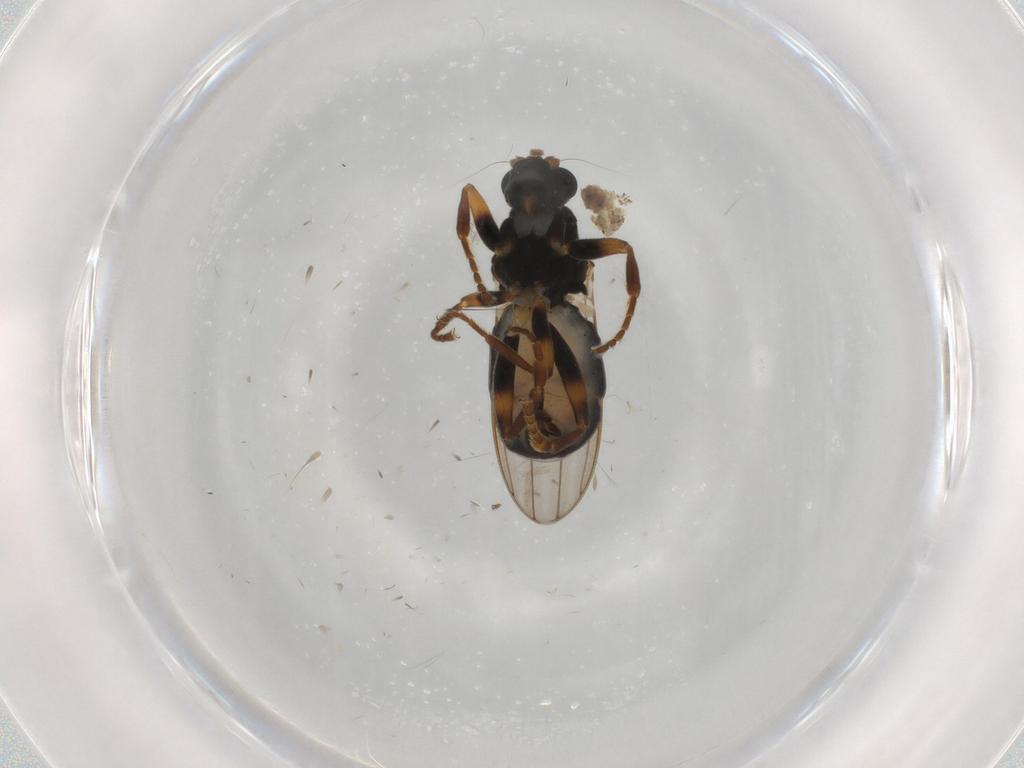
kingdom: Animalia
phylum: Arthropoda
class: Insecta
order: Diptera
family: Sphaeroceridae
